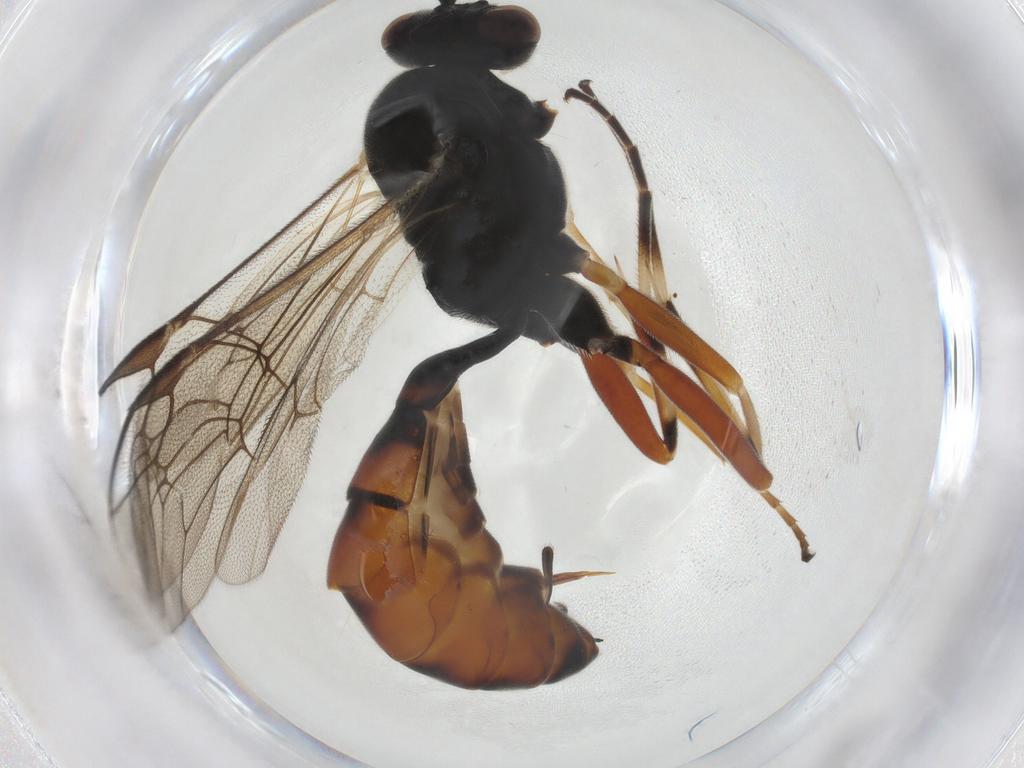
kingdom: Animalia
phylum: Arthropoda
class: Insecta
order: Hymenoptera
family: Ichneumonidae
